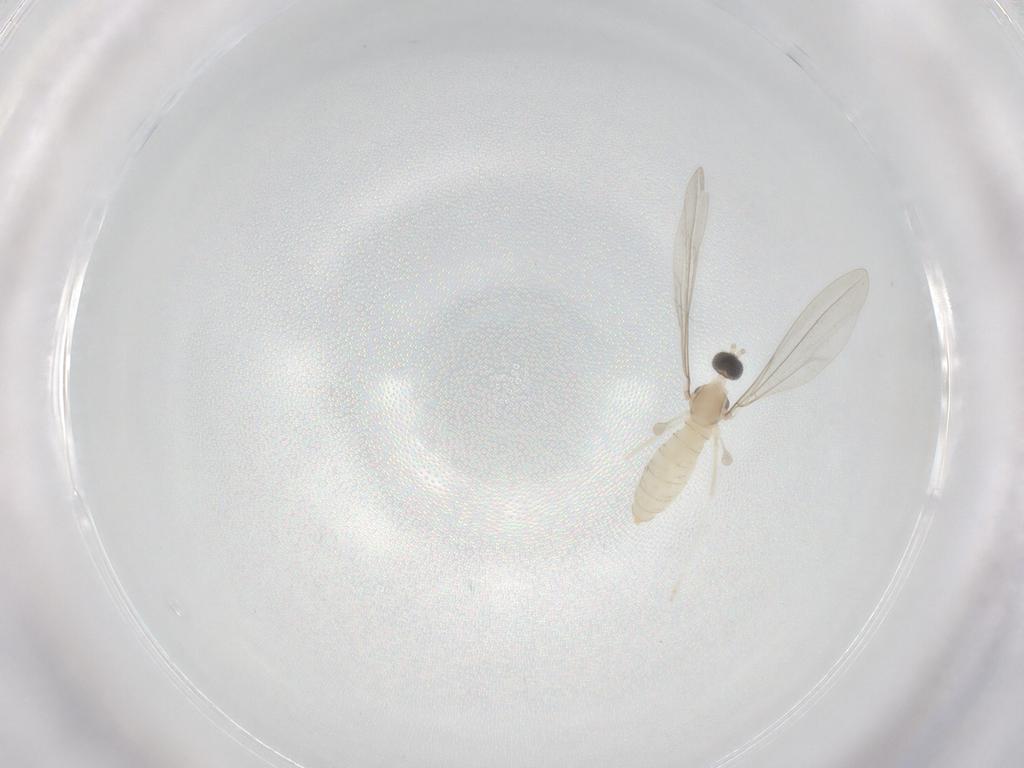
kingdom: Animalia
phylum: Arthropoda
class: Insecta
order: Diptera
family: Cecidomyiidae
